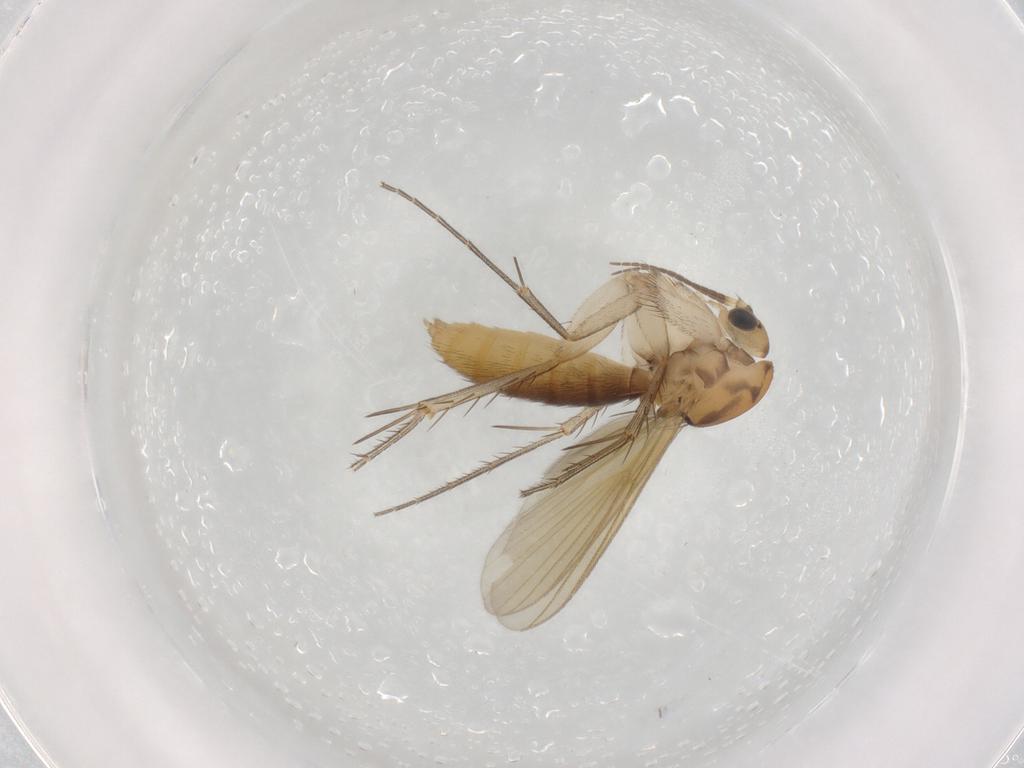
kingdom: Animalia
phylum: Arthropoda
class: Insecta
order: Diptera
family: Mycetophilidae
